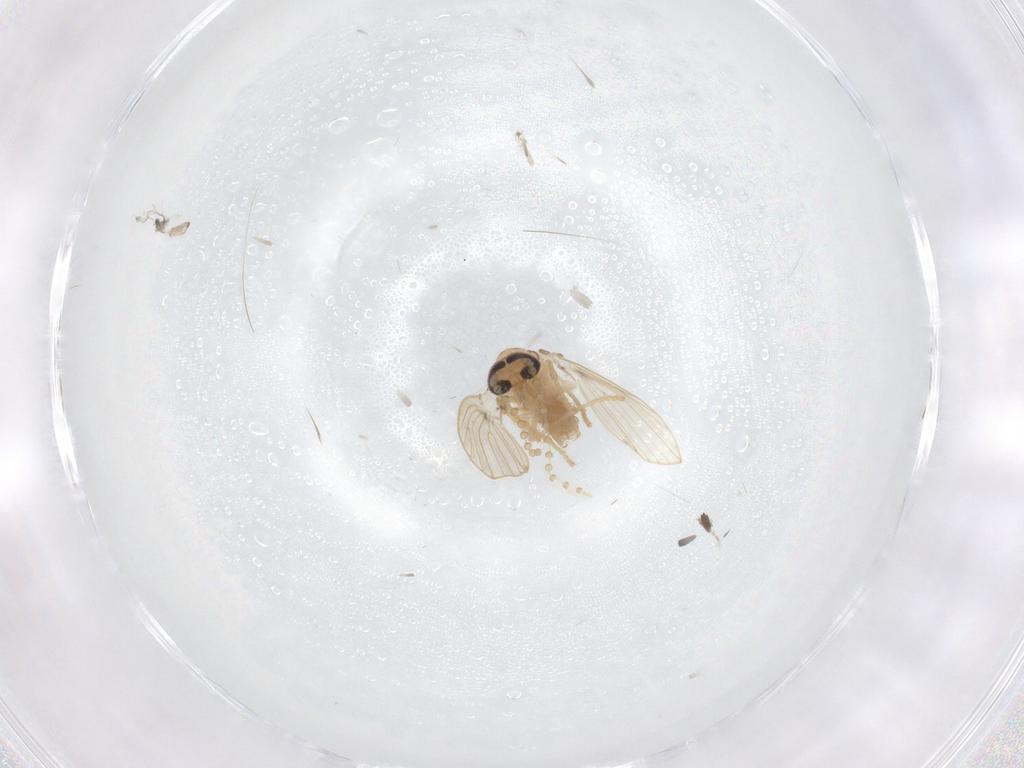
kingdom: Animalia
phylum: Arthropoda
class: Insecta
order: Diptera
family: Psychodidae
